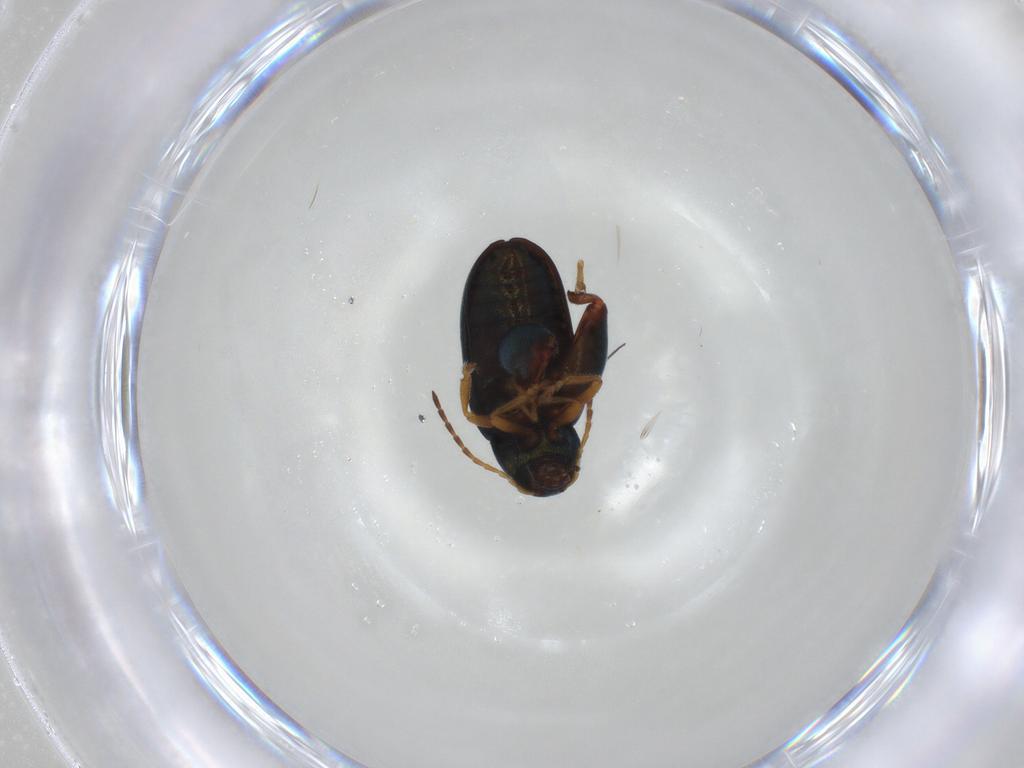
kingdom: Animalia
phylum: Arthropoda
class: Insecta
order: Coleoptera
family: Chrysomelidae
